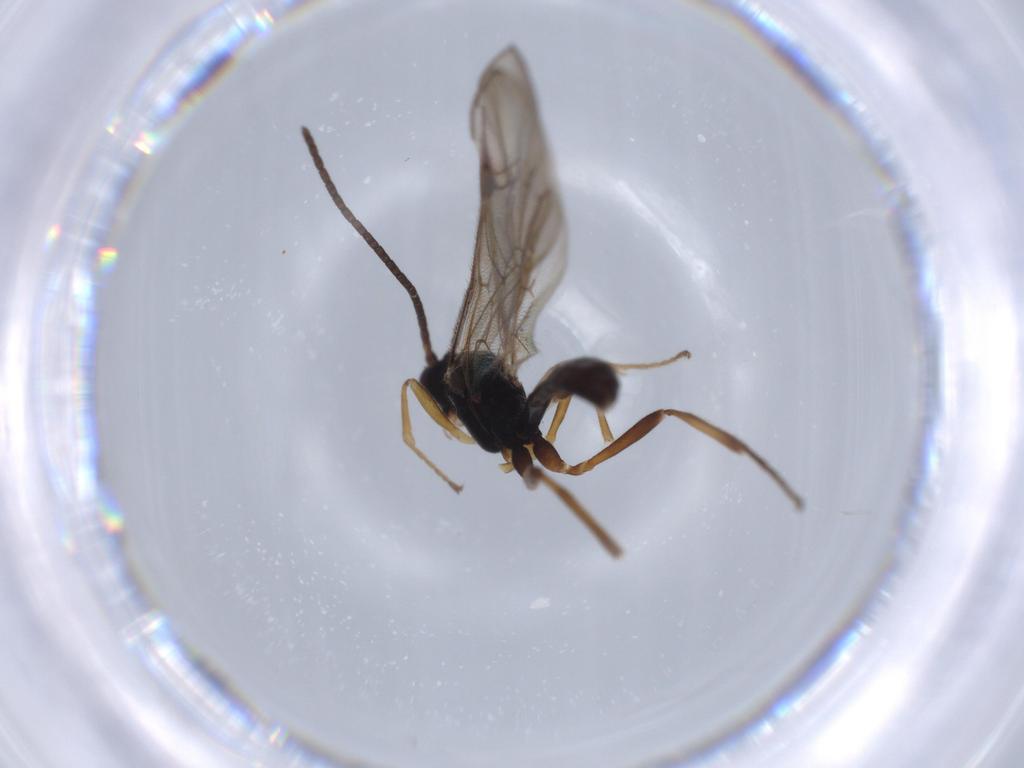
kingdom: Animalia
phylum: Arthropoda
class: Insecta
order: Hymenoptera
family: Ichneumonidae
